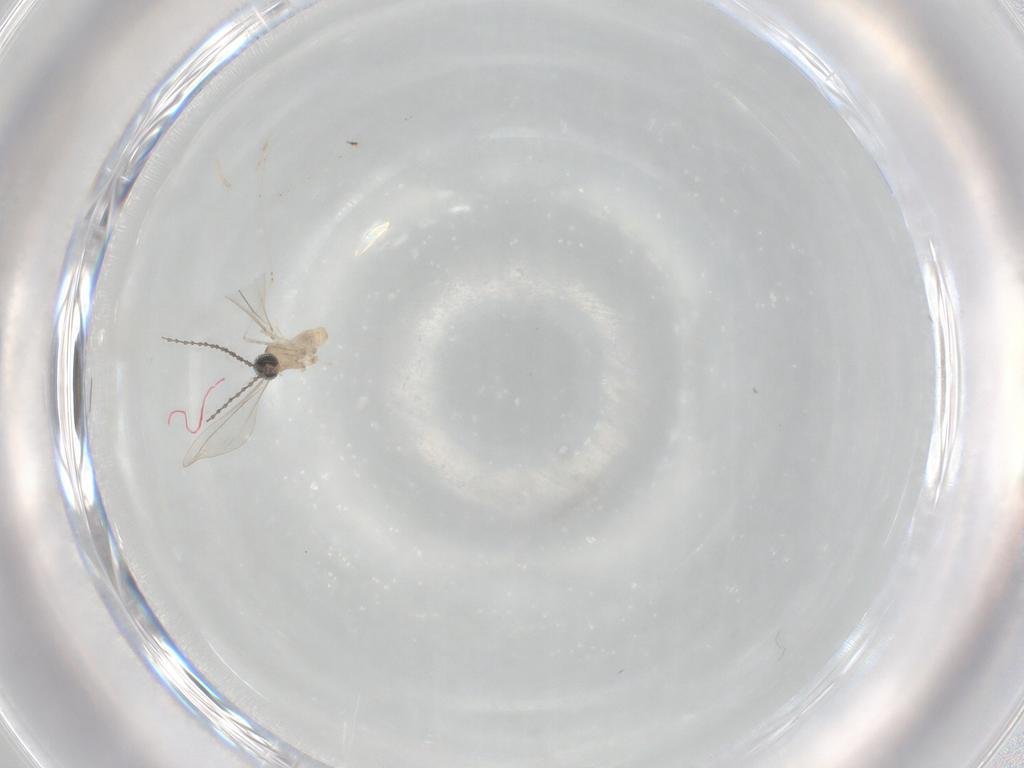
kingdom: Animalia
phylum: Arthropoda
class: Insecta
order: Diptera
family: Cecidomyiidae
